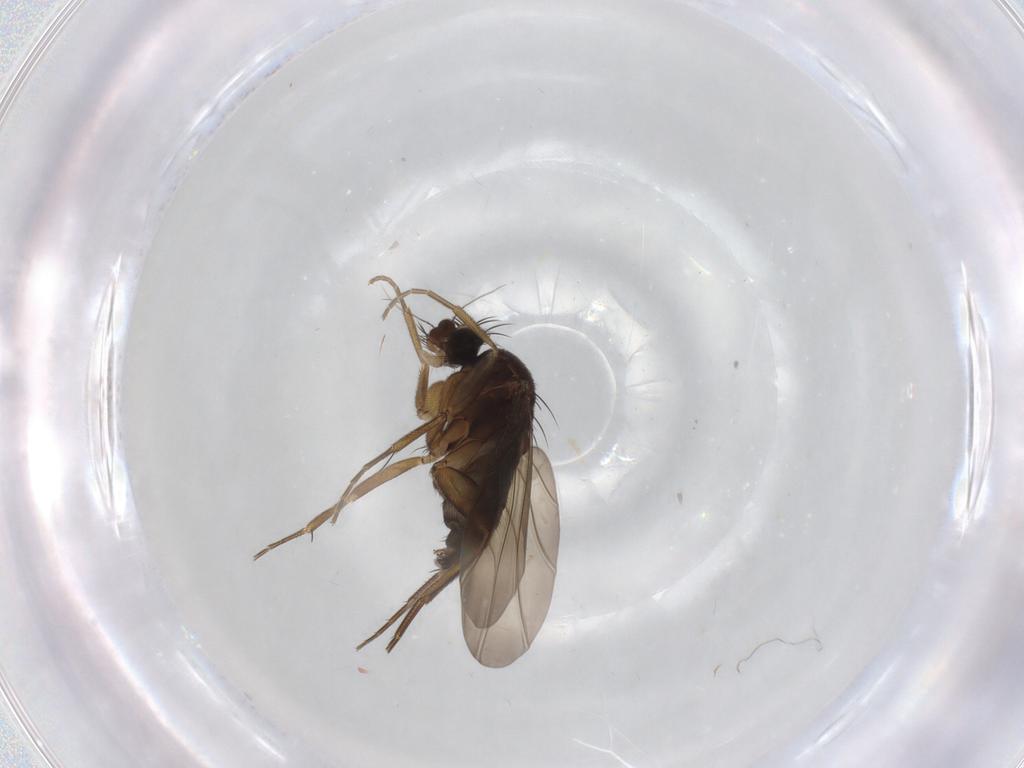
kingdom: Animalia
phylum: Arthropoda
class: Insecta
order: Diptera
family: Phoridae
